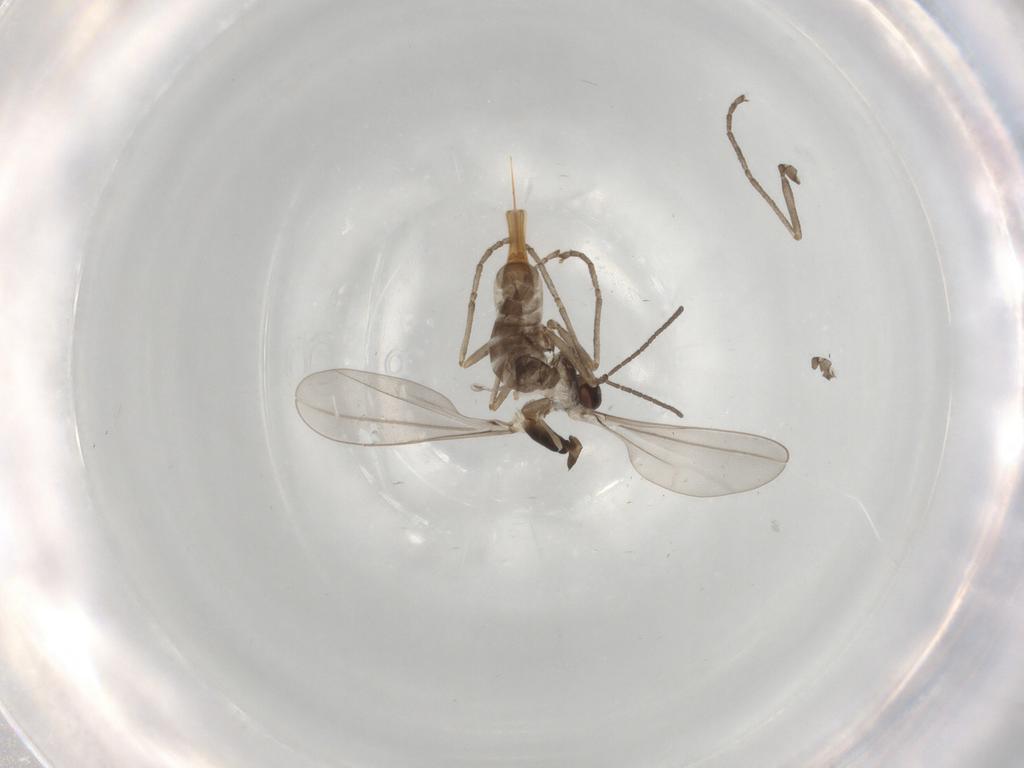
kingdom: Animalia
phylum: Arthropoda
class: Insecta
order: Diptera
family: Cecidomyiidae
